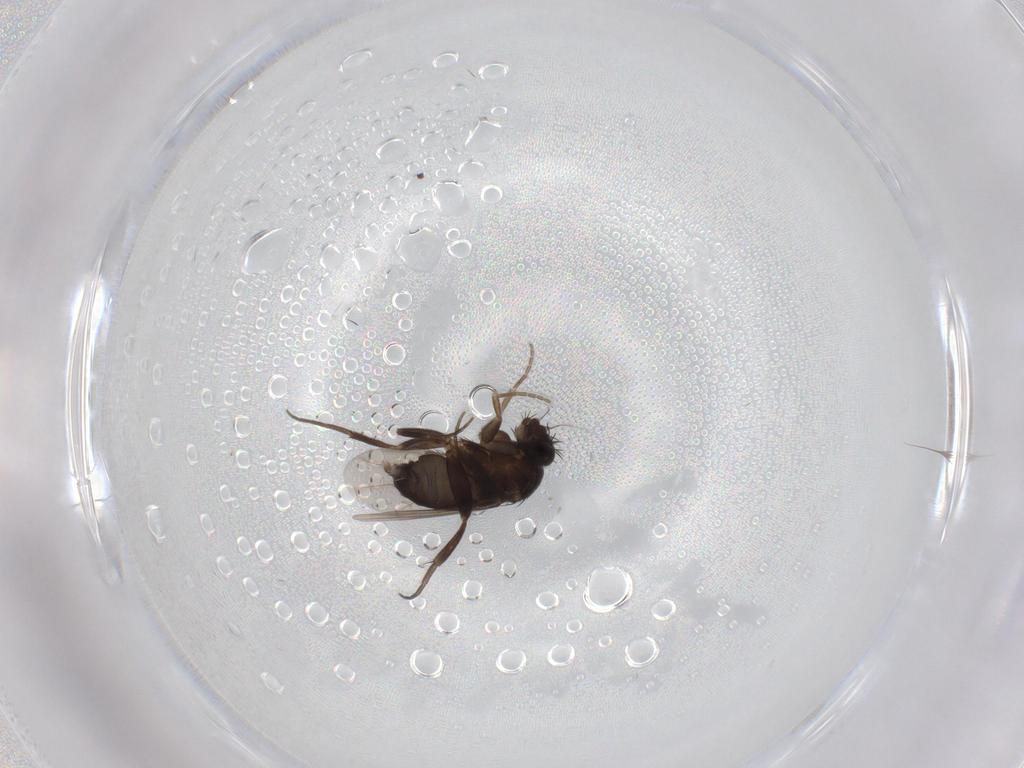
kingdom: Animalia
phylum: Arthropoda
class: Insecta
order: Diptera
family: Phoridae
